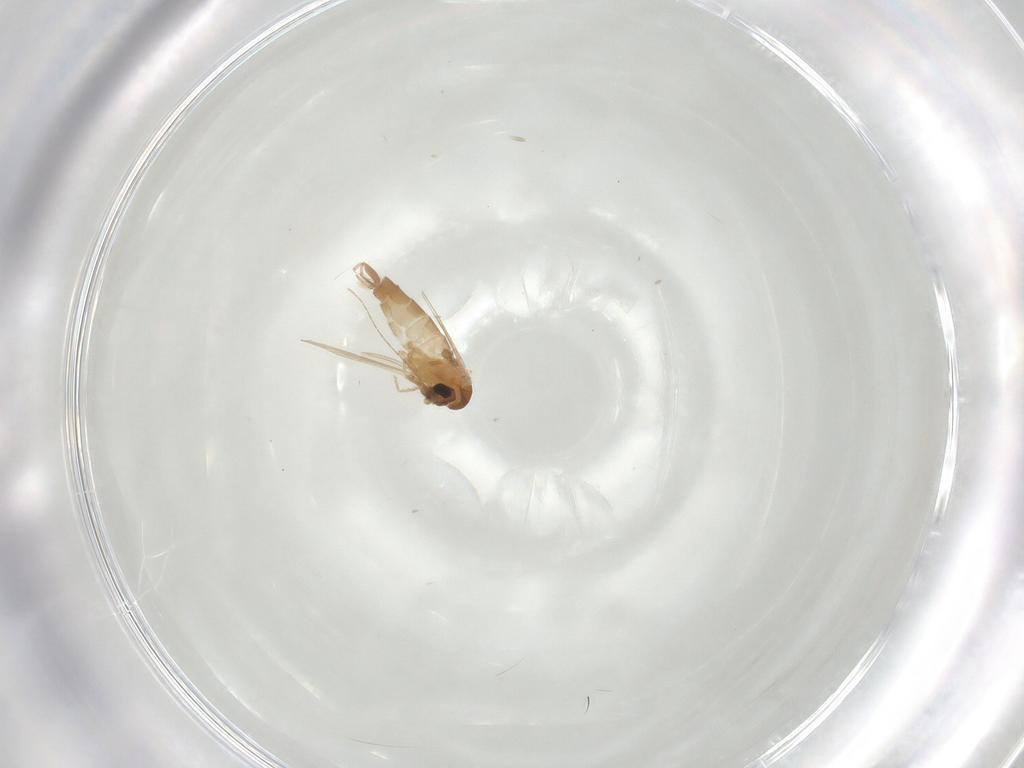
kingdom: Animalia
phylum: Arthropoda
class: Insecta
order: Diptera
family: Psychodidae
